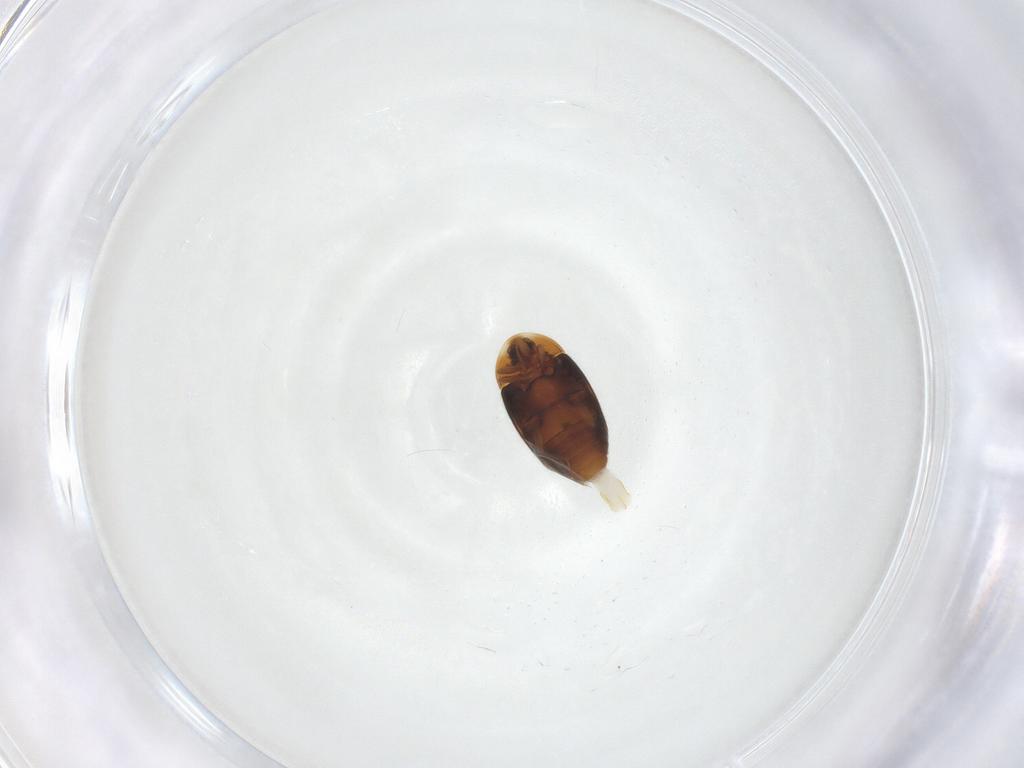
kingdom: Animalia
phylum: Arthropoda
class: Insecta
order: Coleoptera
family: Corylophidae
